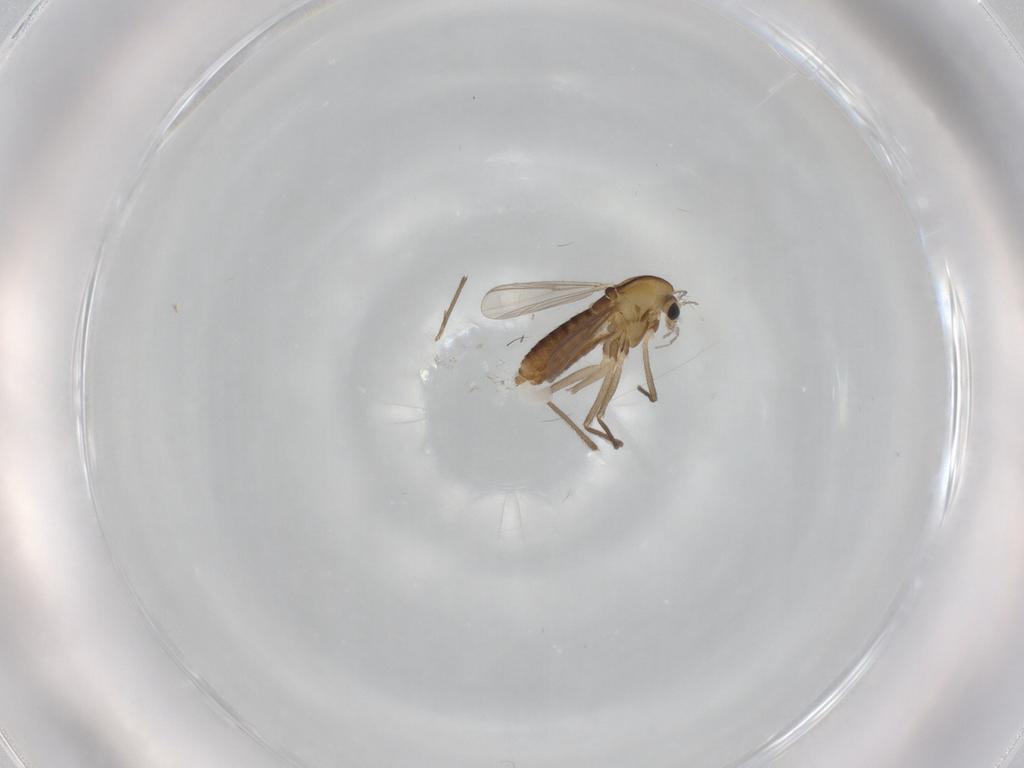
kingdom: Animalia
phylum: Arthropoda
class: Insecta
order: Diptera
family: Chironomidae
